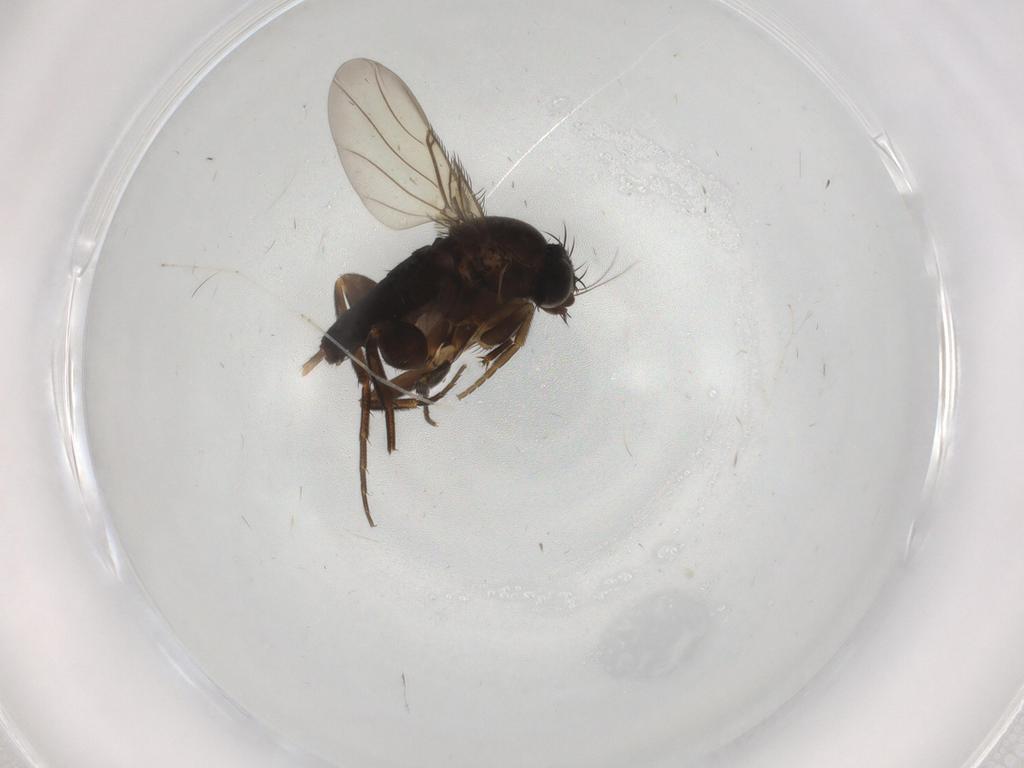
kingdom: Animalia
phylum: Arthropoda
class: Insecta
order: Diptera
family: Phoridae
